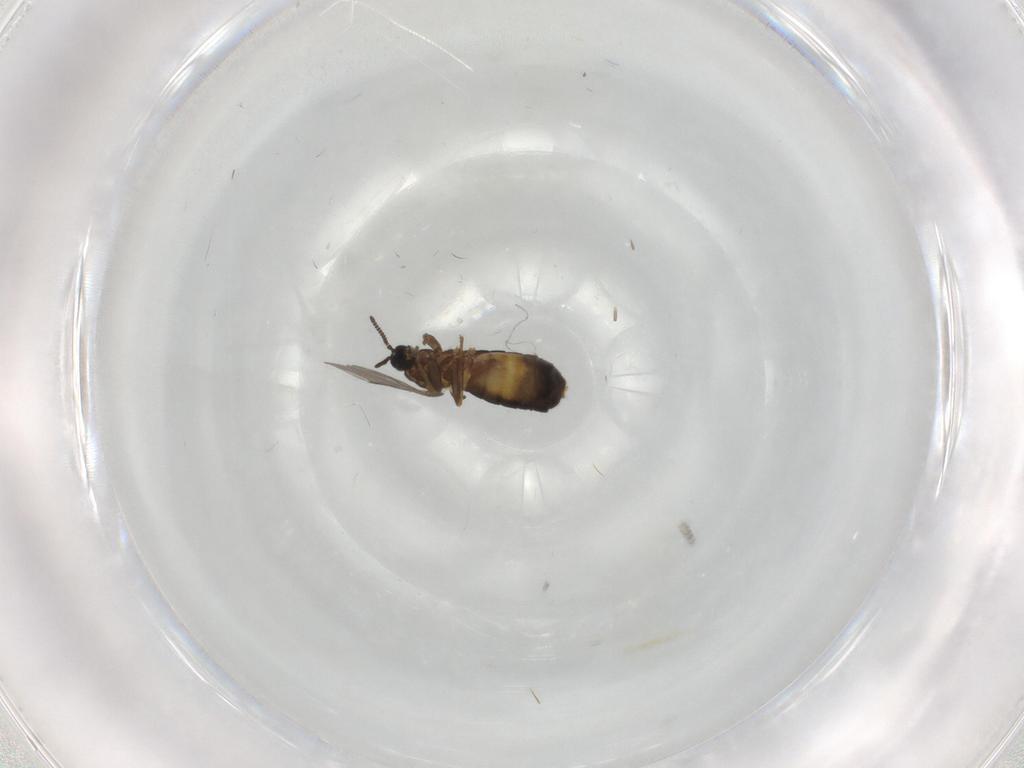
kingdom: Animalia
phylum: Arthropoda
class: Insecta
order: Diptera
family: Scatopsidae
